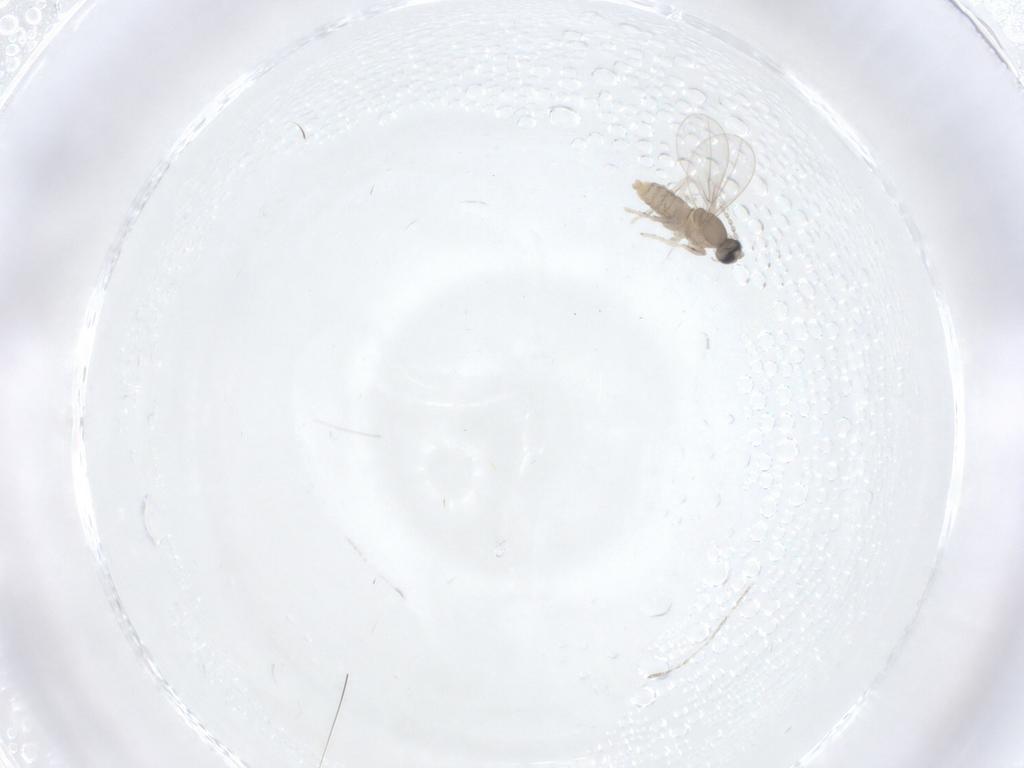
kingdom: Animalia
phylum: Arthropoda
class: Insecta
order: Diptera
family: Cecidomyiidae
